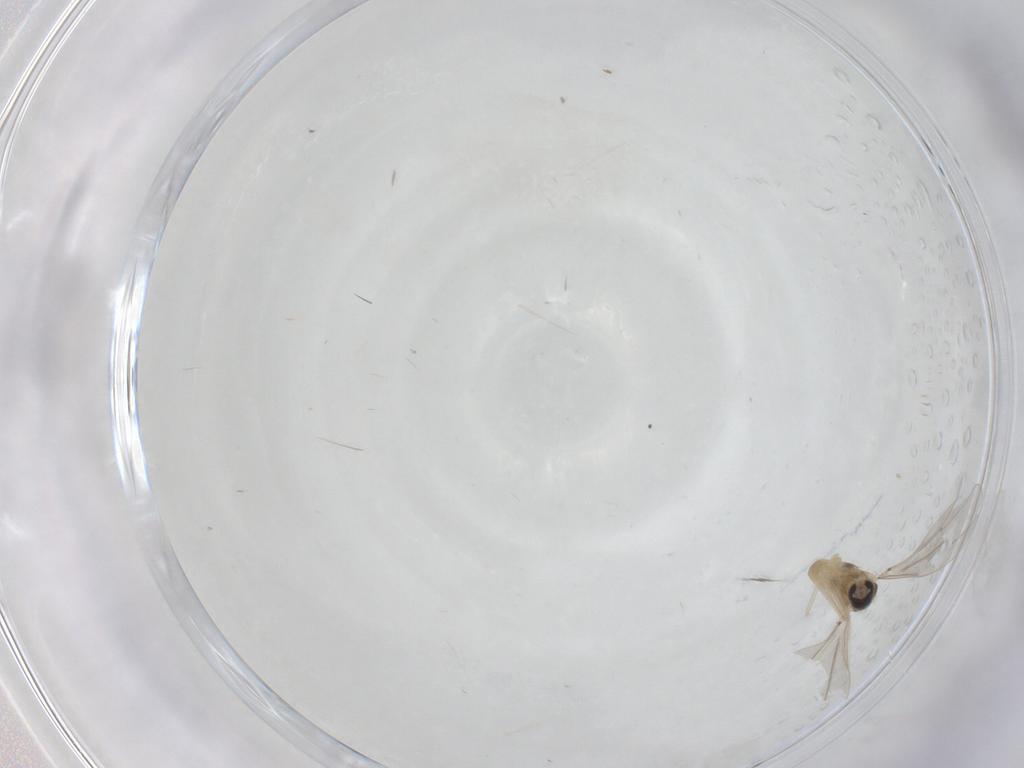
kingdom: Animalia
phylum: Arthropoda
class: Insecta
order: Diptera
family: Cecidomyiidae
